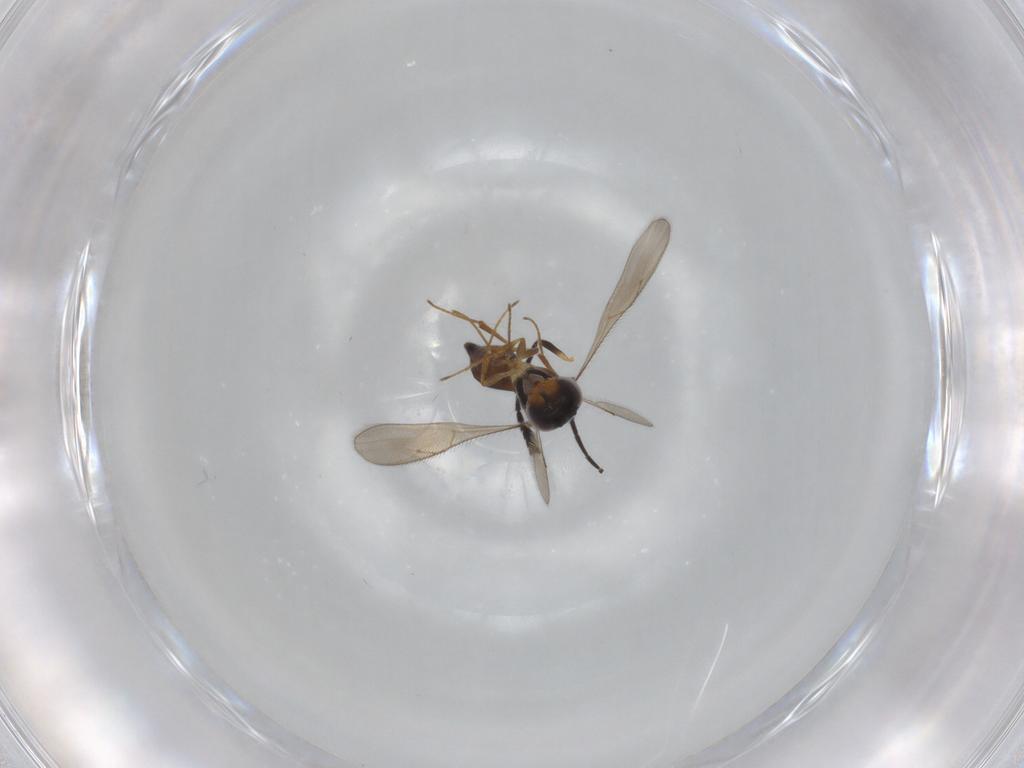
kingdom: Animalia
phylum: Arthropoda
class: Insecta
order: Hymenoptera
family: Scelionidae
